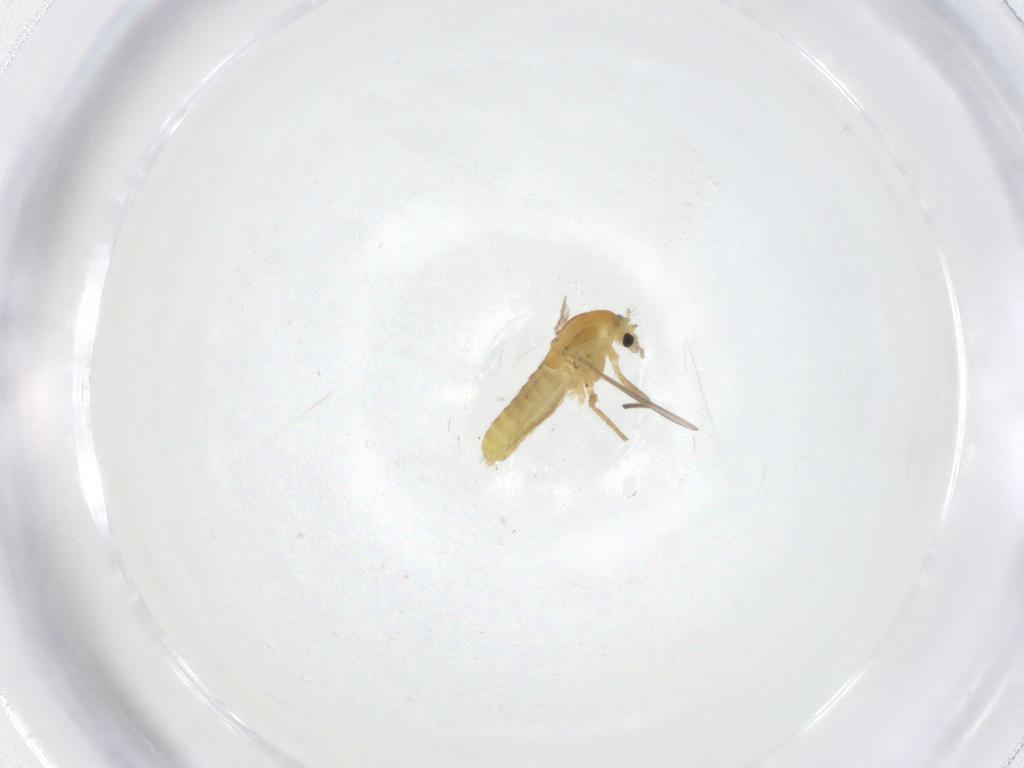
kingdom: Animalia
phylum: Arthropoda
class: Insecta
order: Diptera
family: Chironomidae
